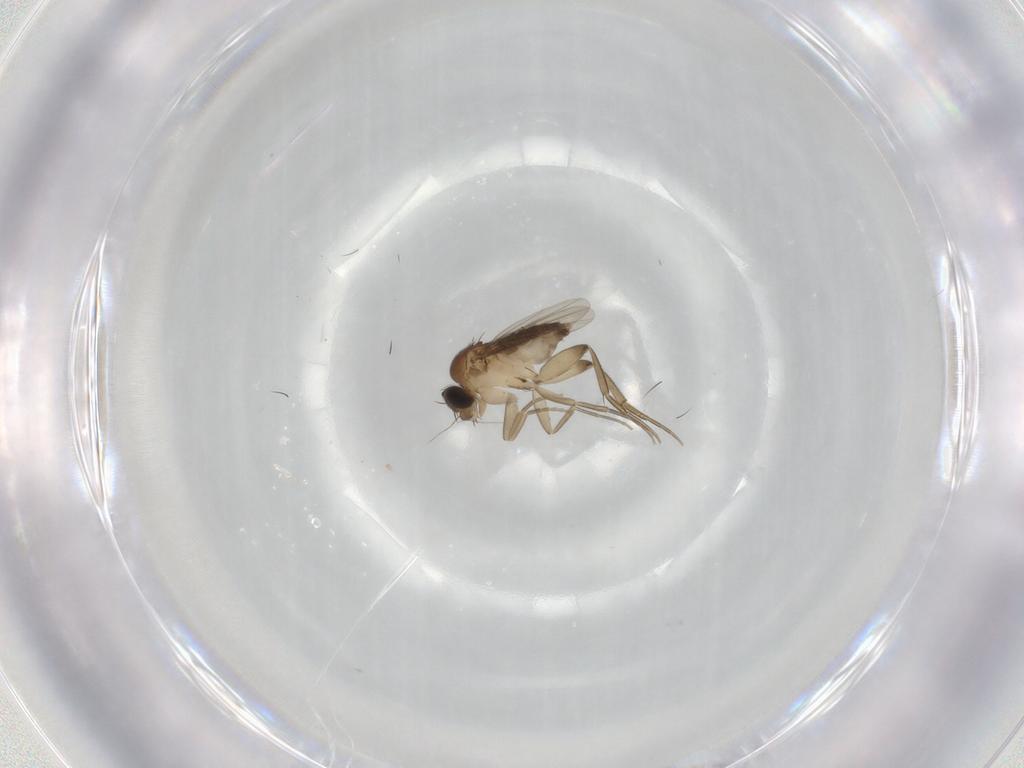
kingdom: Animalia
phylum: Arthropoda
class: Insecta
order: Diptera
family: Phoridae
